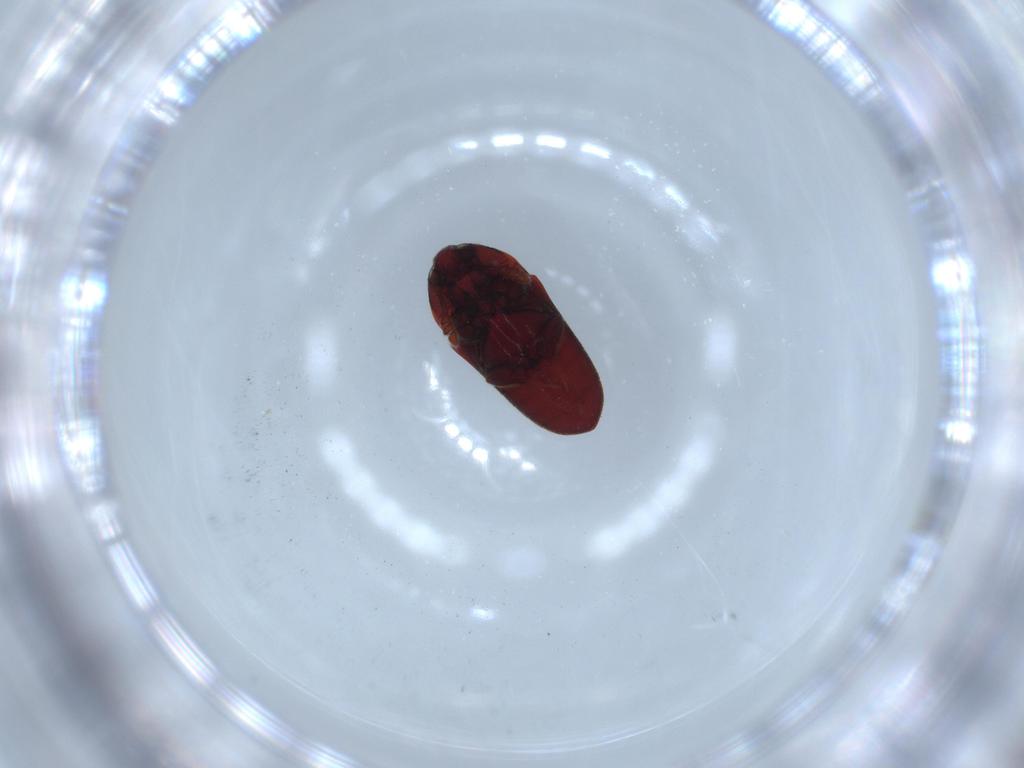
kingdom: Animalia
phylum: Arthropoda
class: Insecta
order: Coleoptera
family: Throscidae
